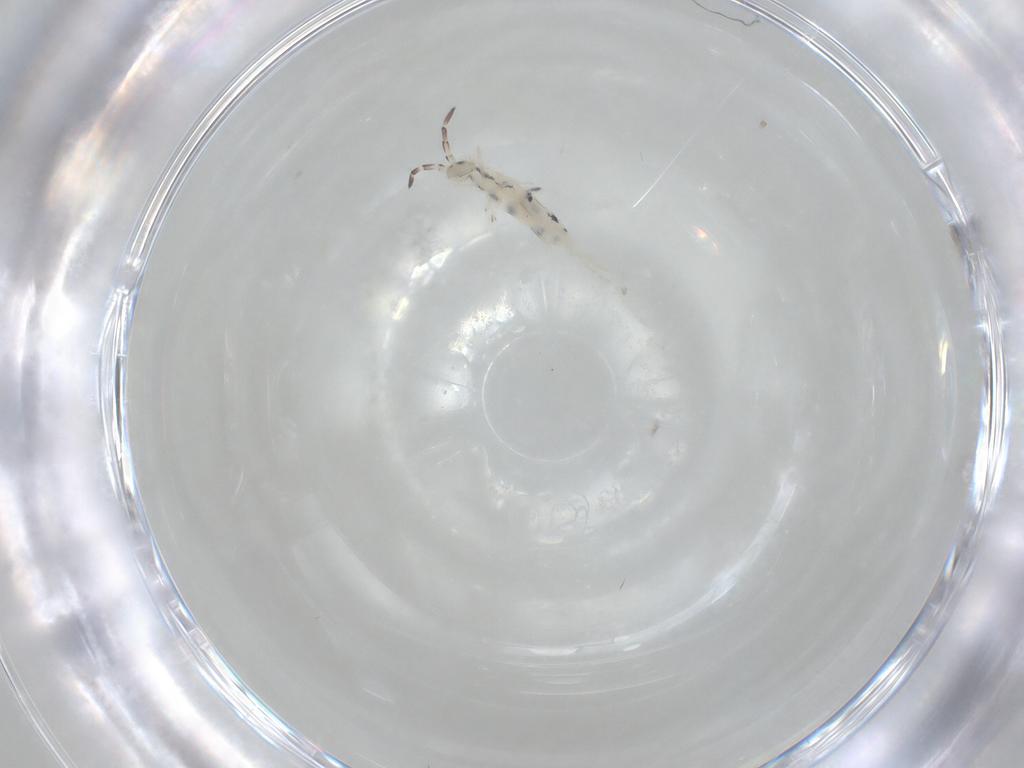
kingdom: Animalia
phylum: Arthropoda
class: Collembola
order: Entomobryomorpha
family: Entomobryidae
